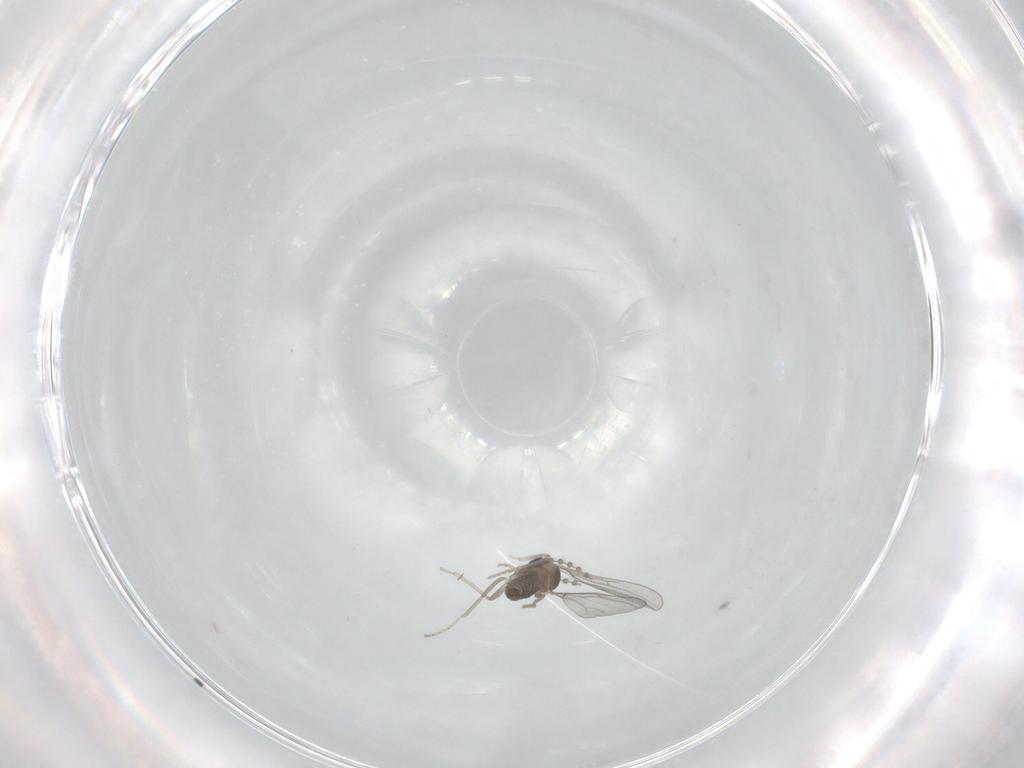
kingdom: Animalia
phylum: Arthropoda
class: Insecta
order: Diptera
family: Cecidomyiidae
